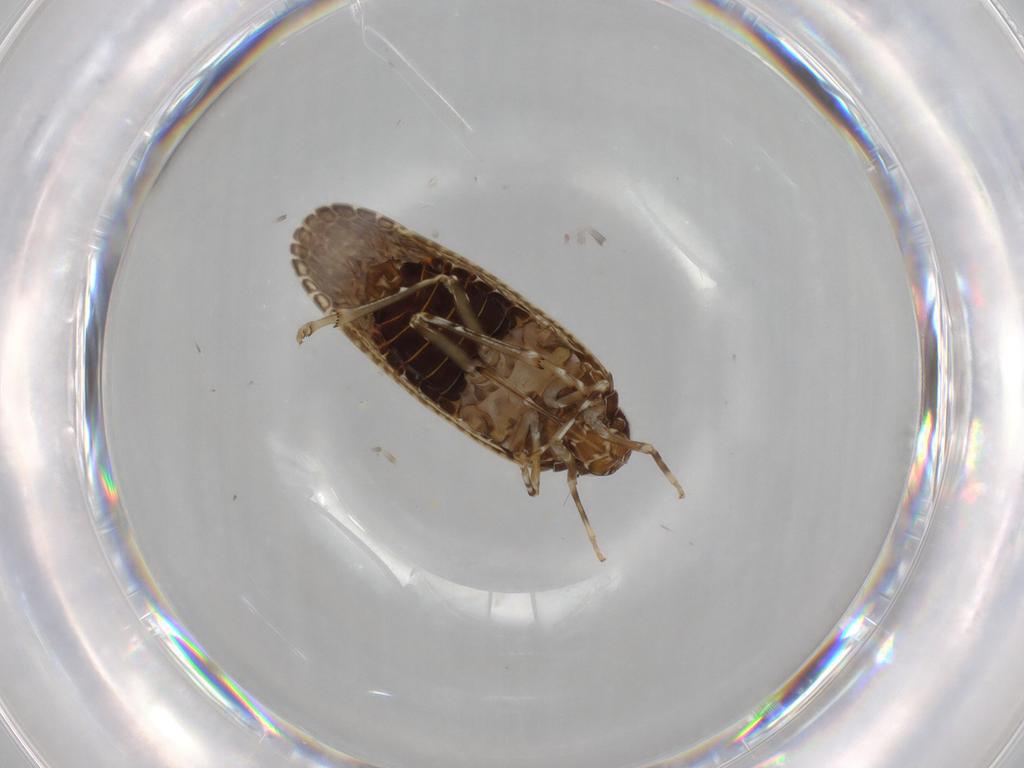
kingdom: Animalia
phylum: Arthropoda
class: Insecta
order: Hemiptera
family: Achilidae
